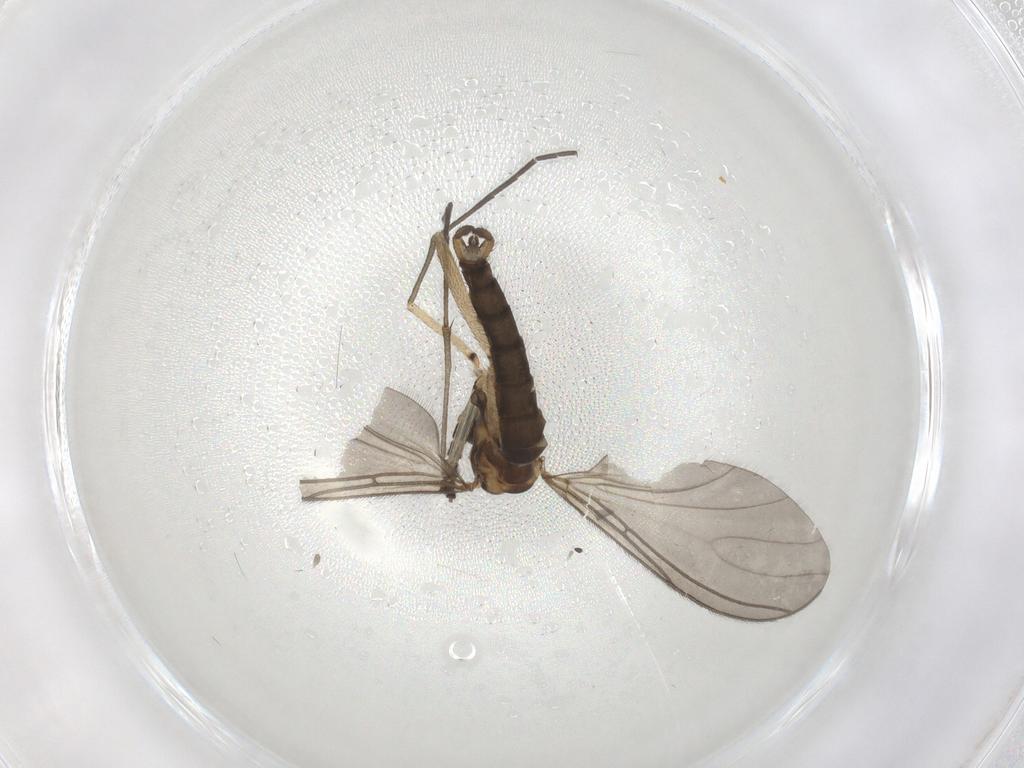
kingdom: Animalia
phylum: Arthropoda
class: Insecta
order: Diptera
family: Sciaridae
